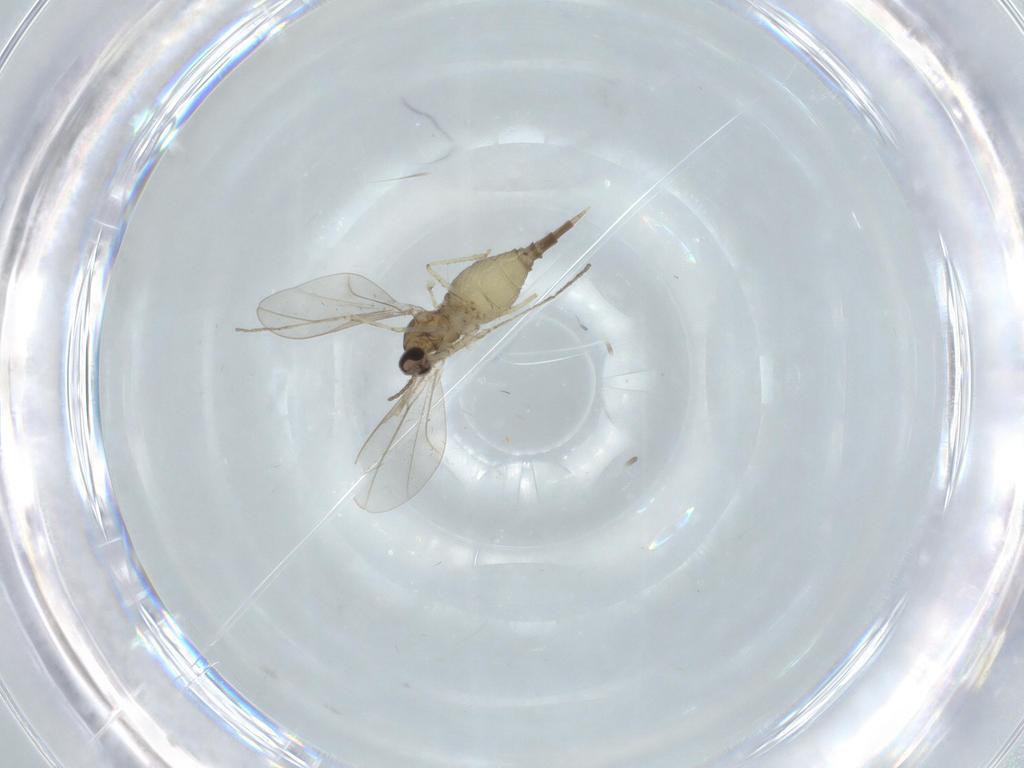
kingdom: Animalia
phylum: Arthropoda
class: Insecta
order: Diptera
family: Cecidomyiidae
